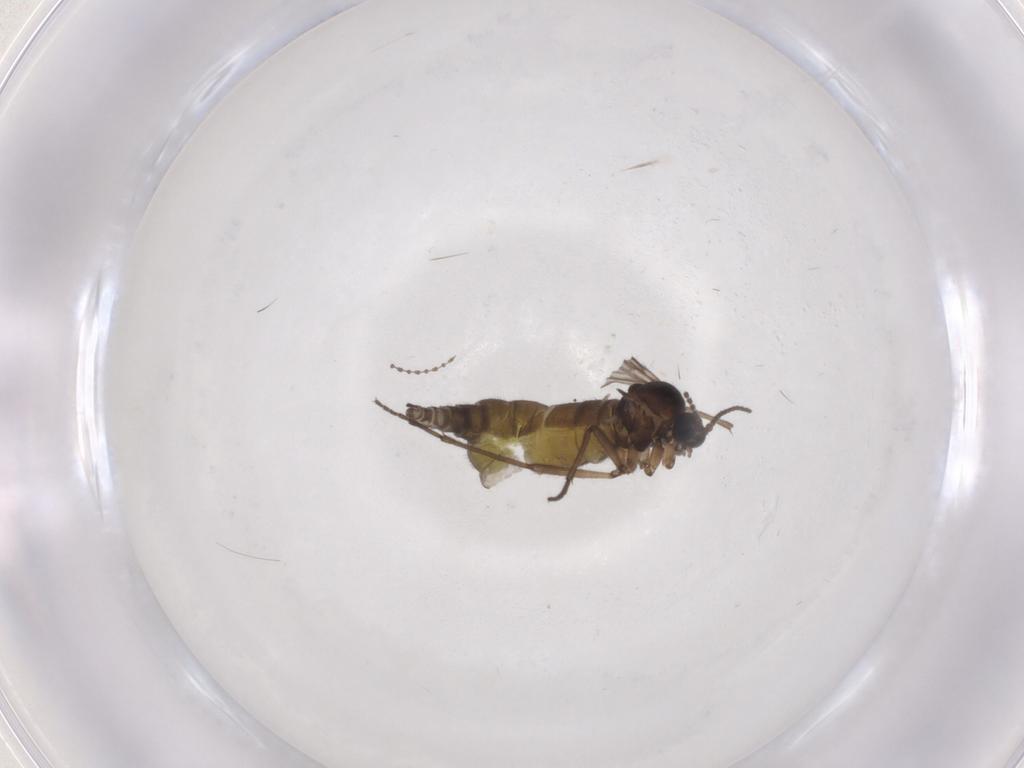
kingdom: Animalia
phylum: Arthropoda
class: Insecta
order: Diptera
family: Sciaridae
